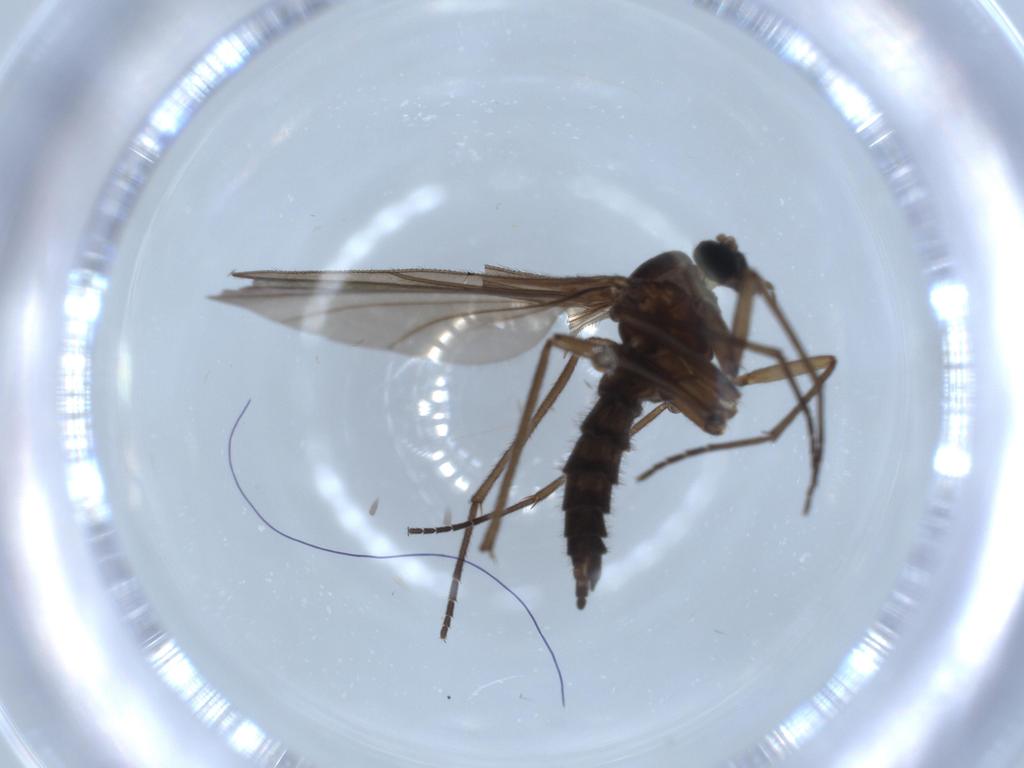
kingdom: Animalia
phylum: Arthropoda
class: Insecta
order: Diptera
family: Sciaridae
